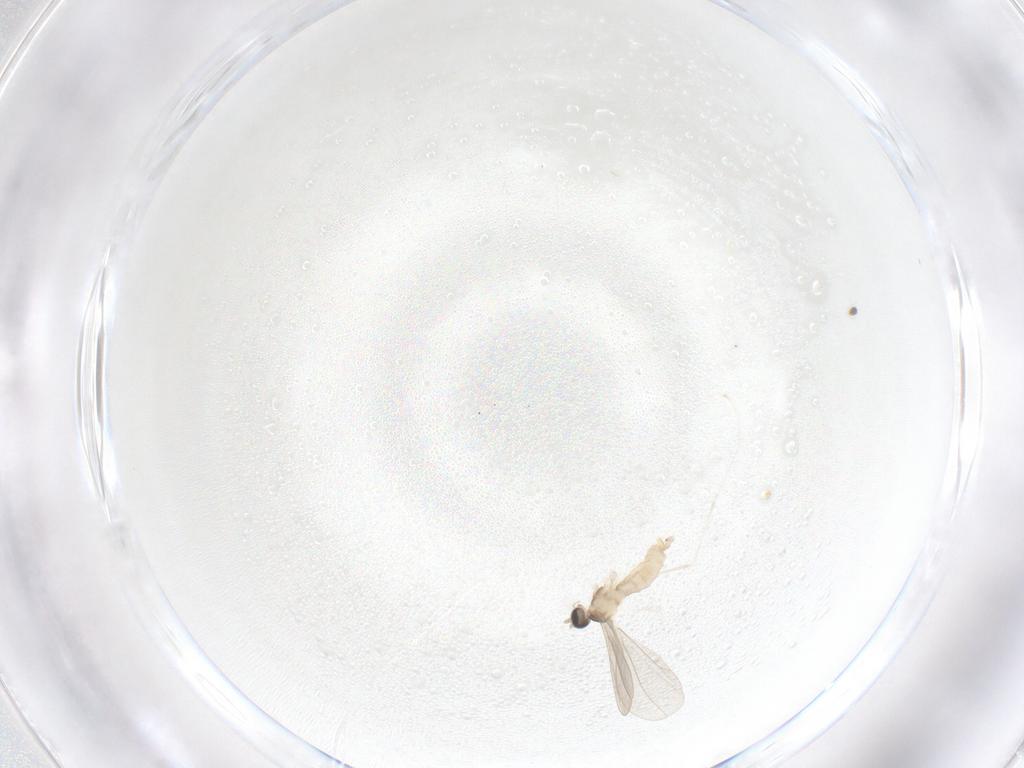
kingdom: Animalia
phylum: Arthropoda
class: Insecta
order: Diptera
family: Cecidomyiidae
